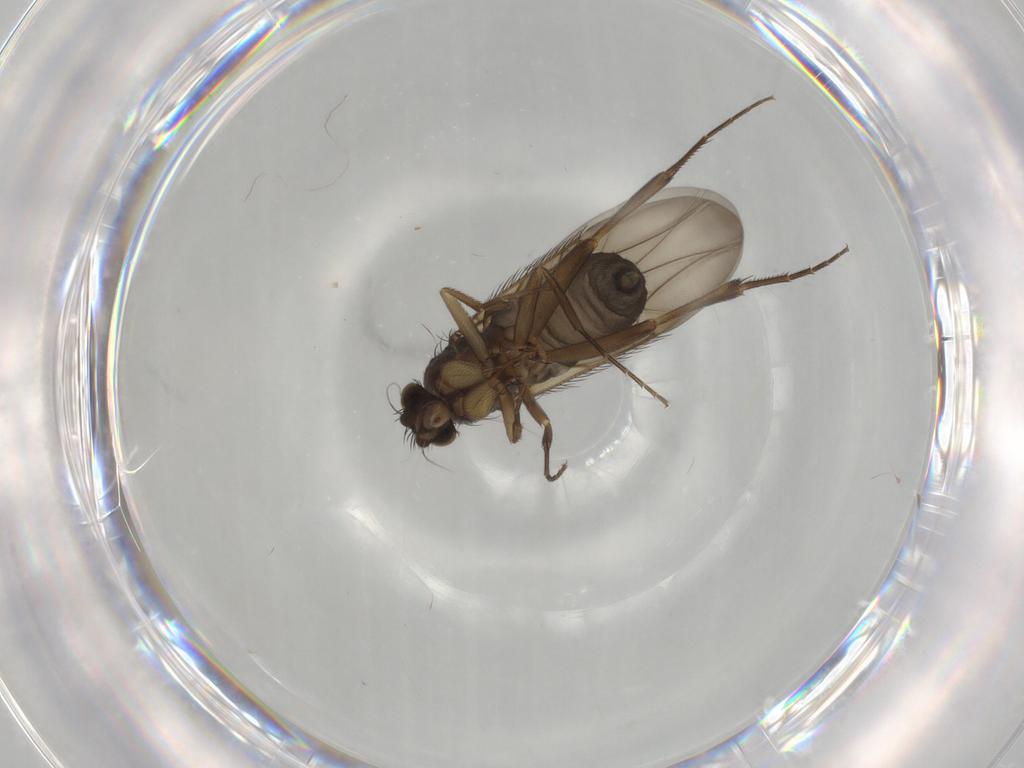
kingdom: Animalia
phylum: Arthropoda
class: Insecta
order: Diptera
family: Phoridae
